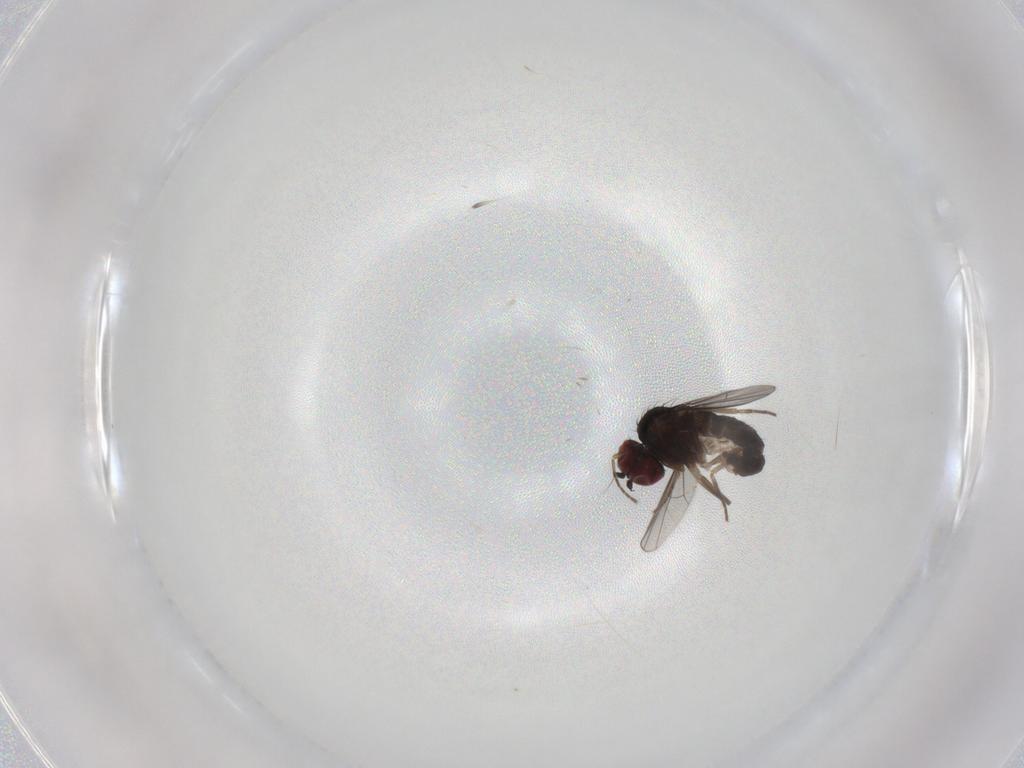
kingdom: Animalia
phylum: Arthropoda
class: Insecta
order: Diptera
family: Dolichopodidae
